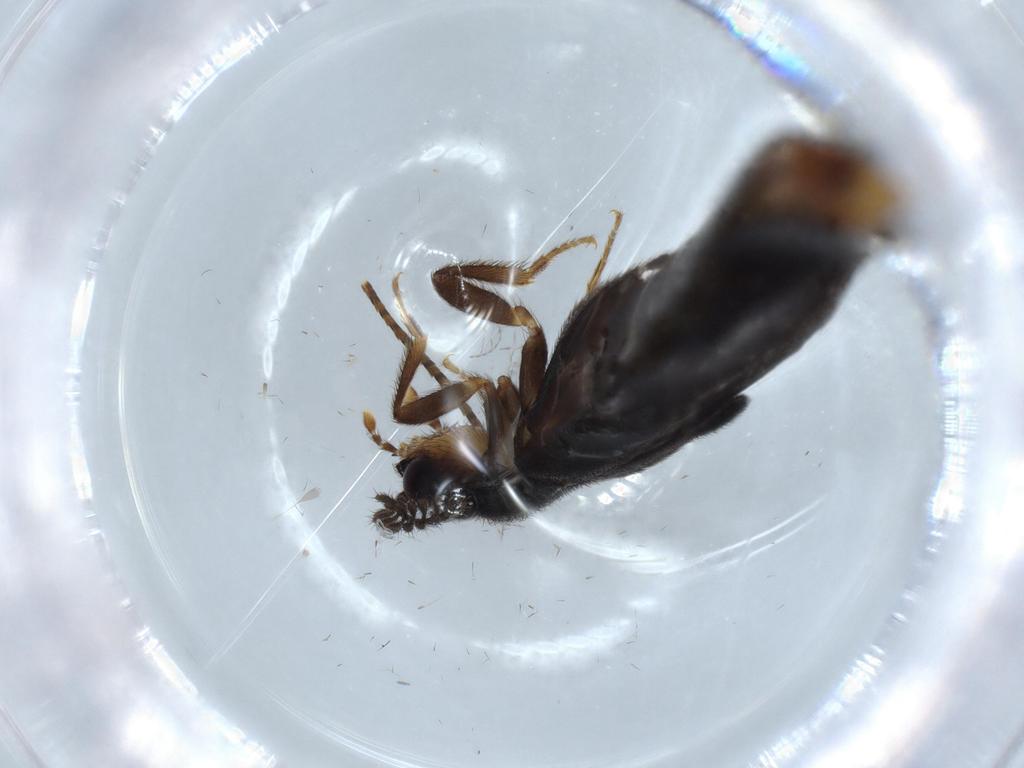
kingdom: Animalia
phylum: Arthropoda
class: Insecta
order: Coleoptera
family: Phengodidae
